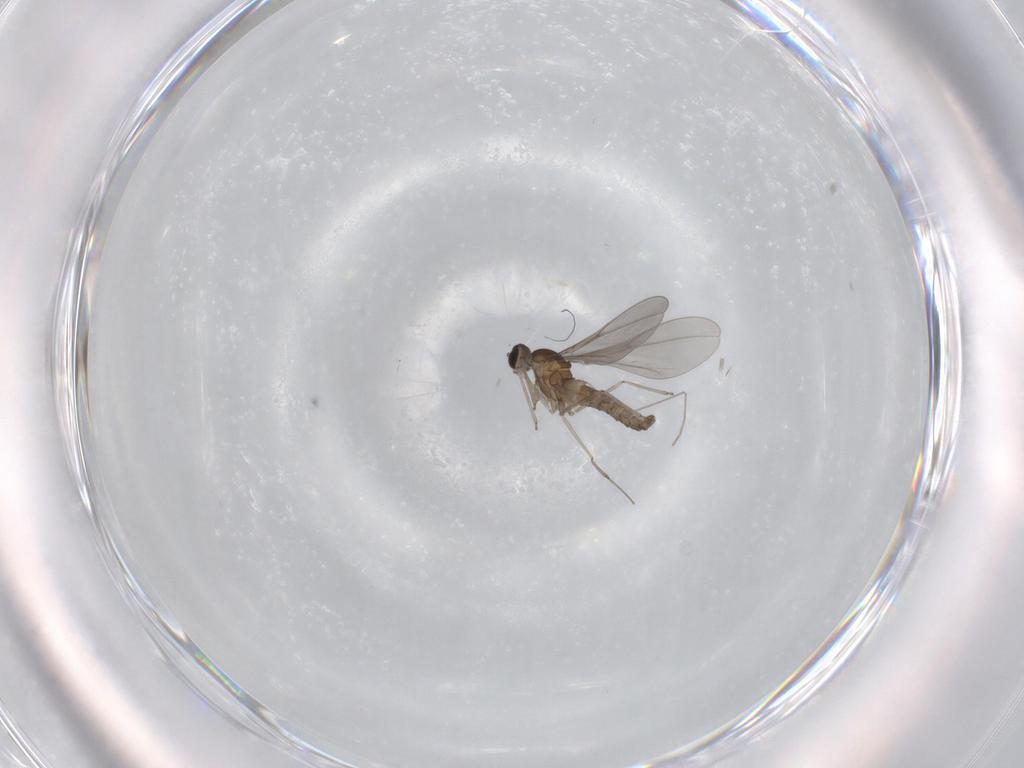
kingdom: Animalia
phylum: Arthropoda
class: Insecta
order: Diptera
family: Cecidomyiidae
